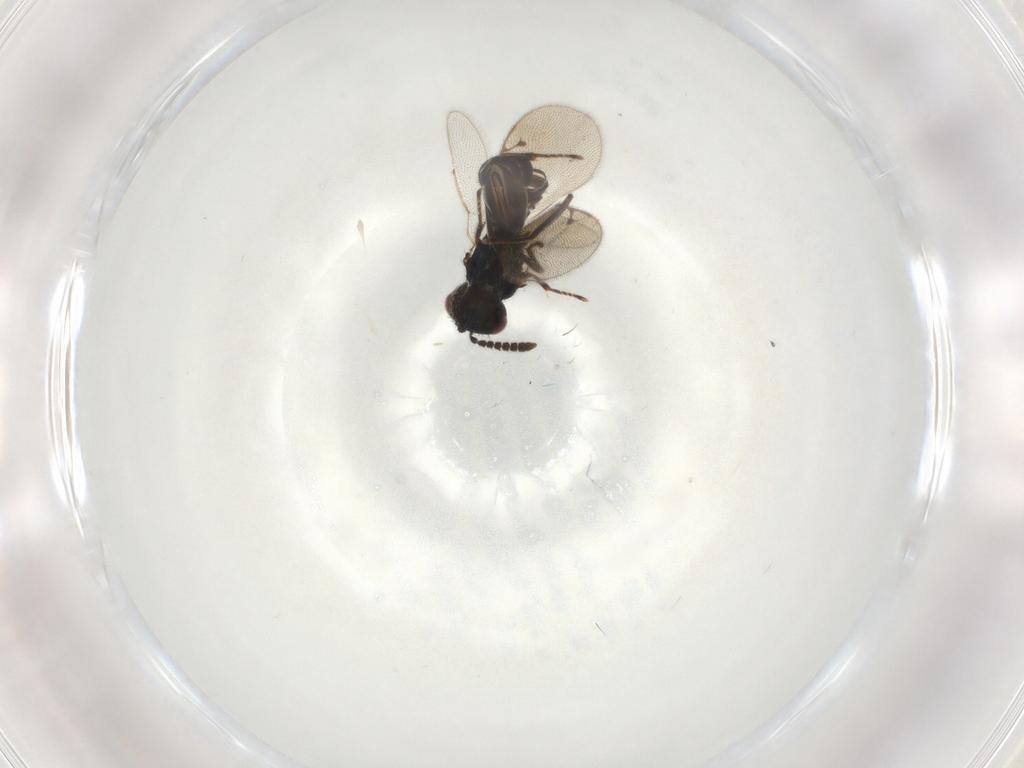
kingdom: Animalia
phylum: Arthropoda
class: Insecta
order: Hymenoptera
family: Pirenidae
